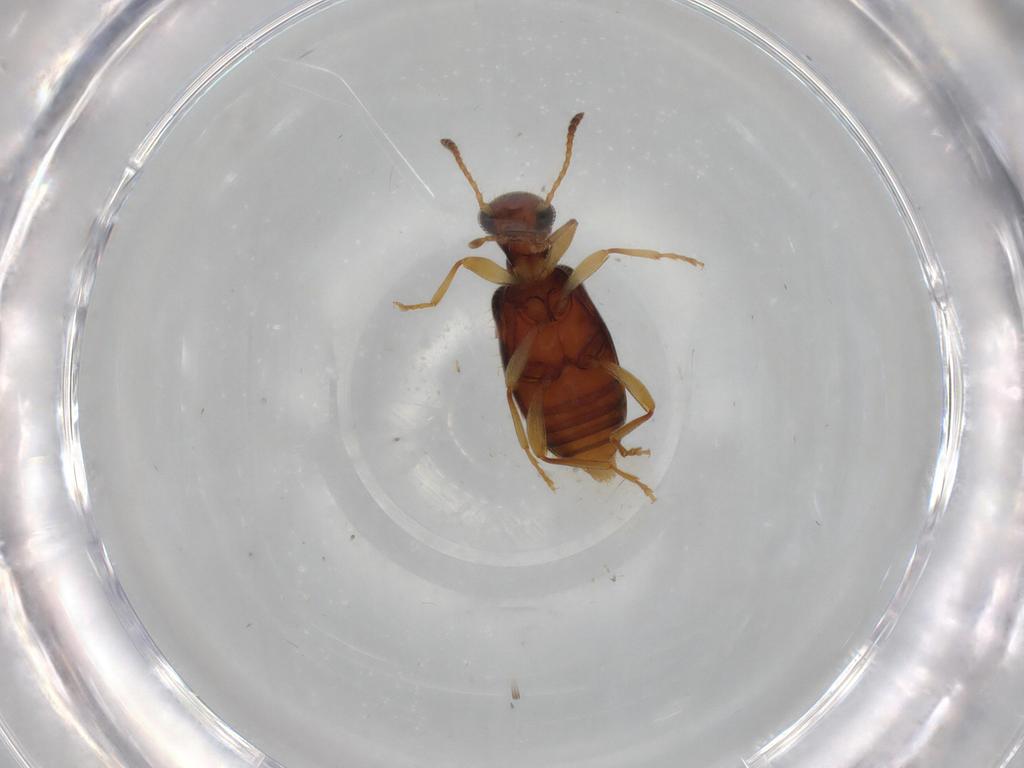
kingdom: Animalia
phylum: Arthropoda
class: Insecta
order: Coleoptera
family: Anthicidae
